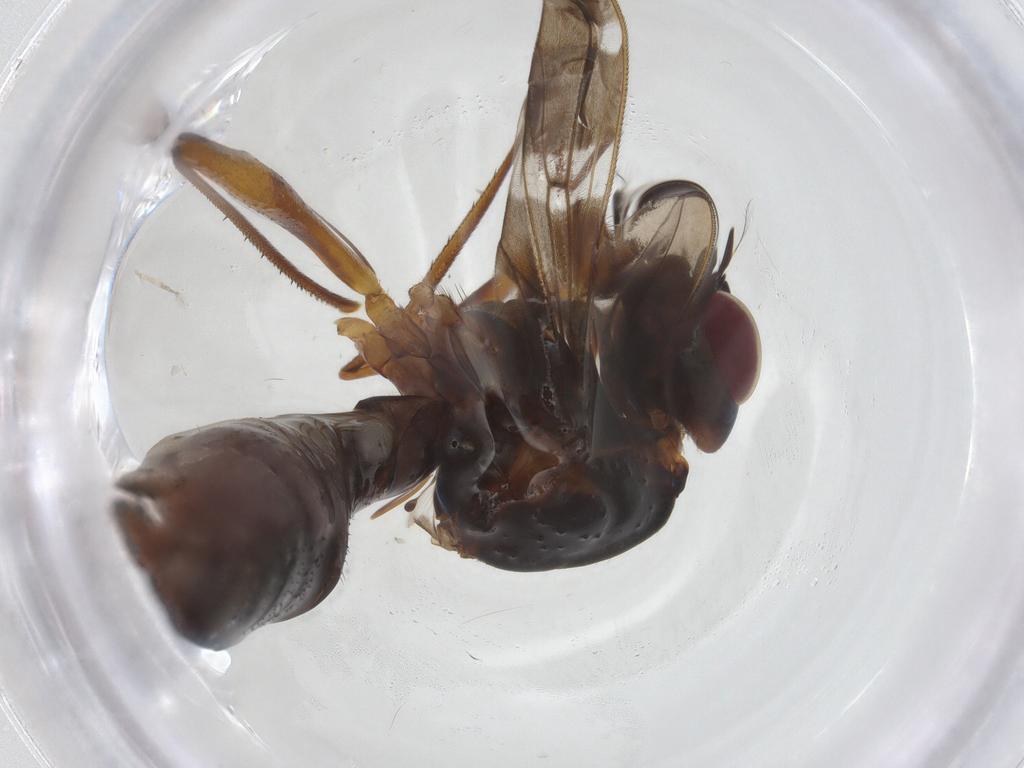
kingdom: Animalia
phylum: Arthropoda
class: Insecta
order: Diptera
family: Micropezidae
